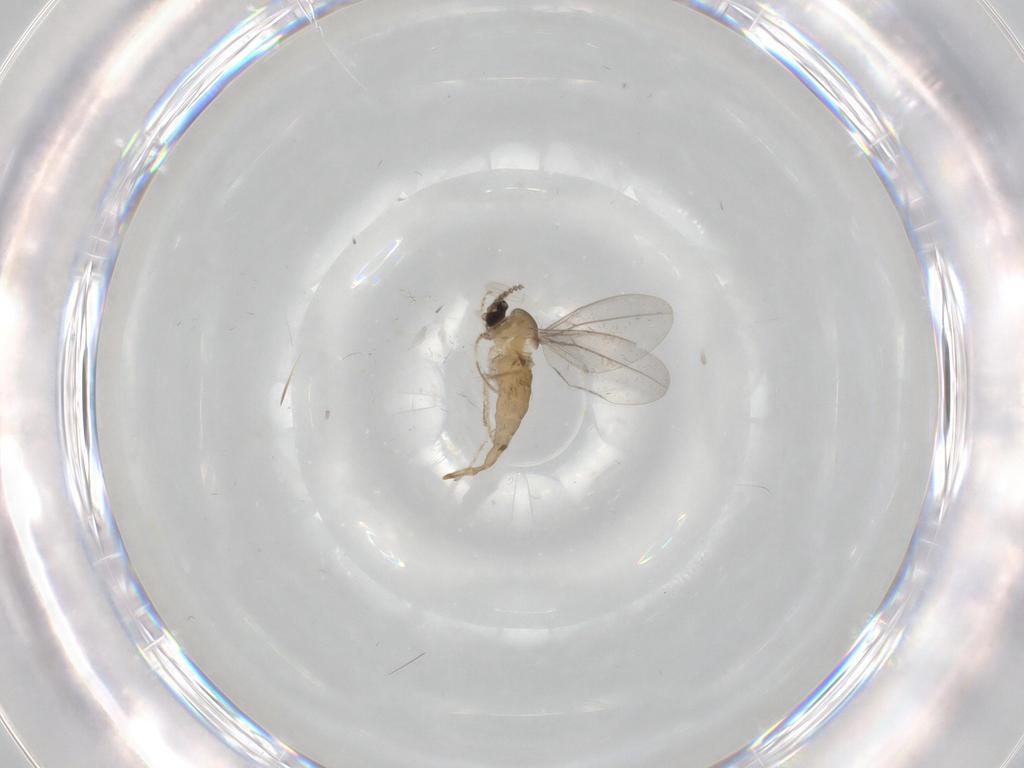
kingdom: Animalia
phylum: Arthropoda
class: Insecta
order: Diptera
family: Cecidomyiidae
